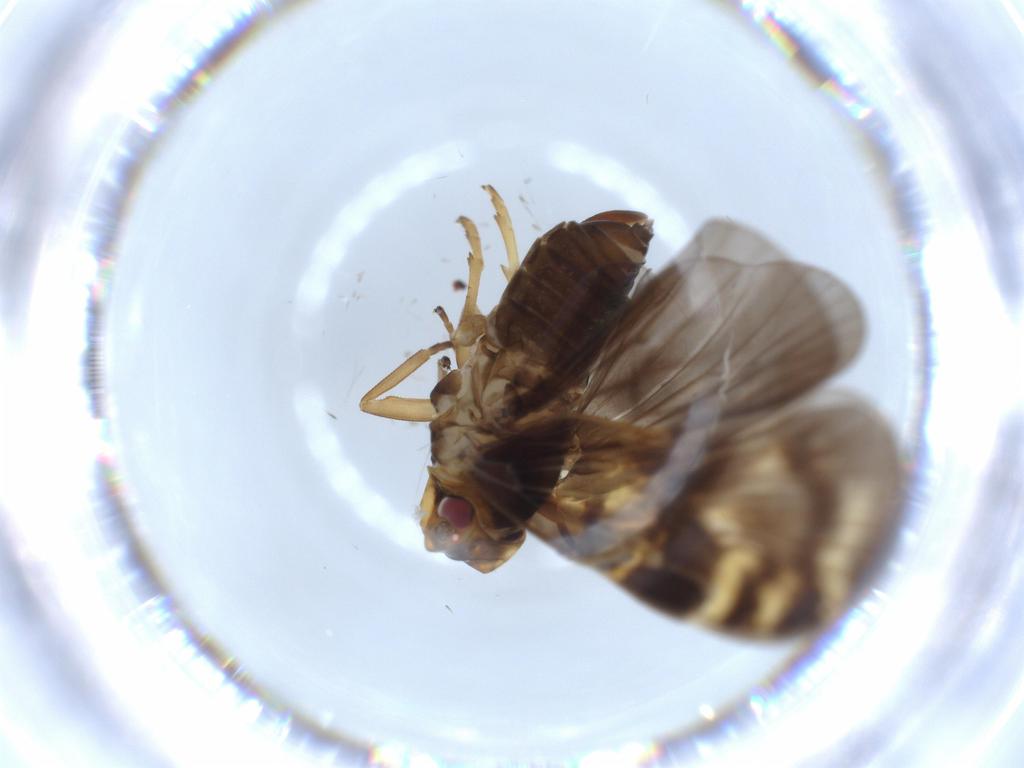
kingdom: Animalia
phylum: Arthropoda
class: Insecta
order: Hemiptera
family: Cixiidae
